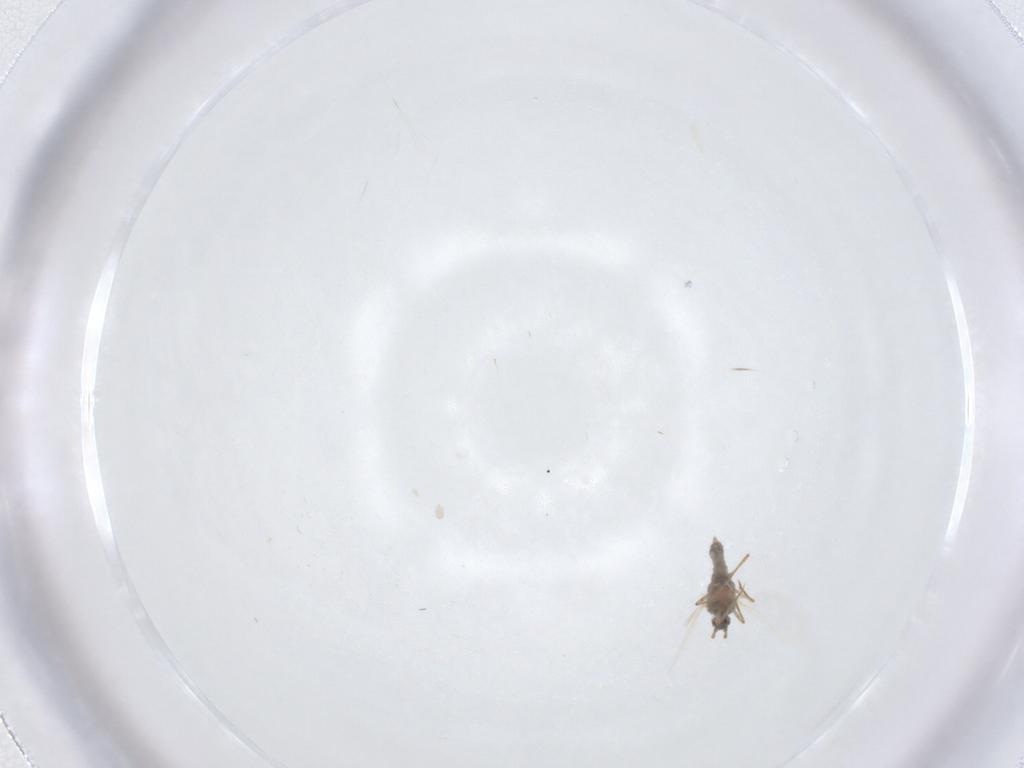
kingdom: Animalia
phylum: Arthropoda
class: Insecta
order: Hemiptera
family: Pseudococcidae
